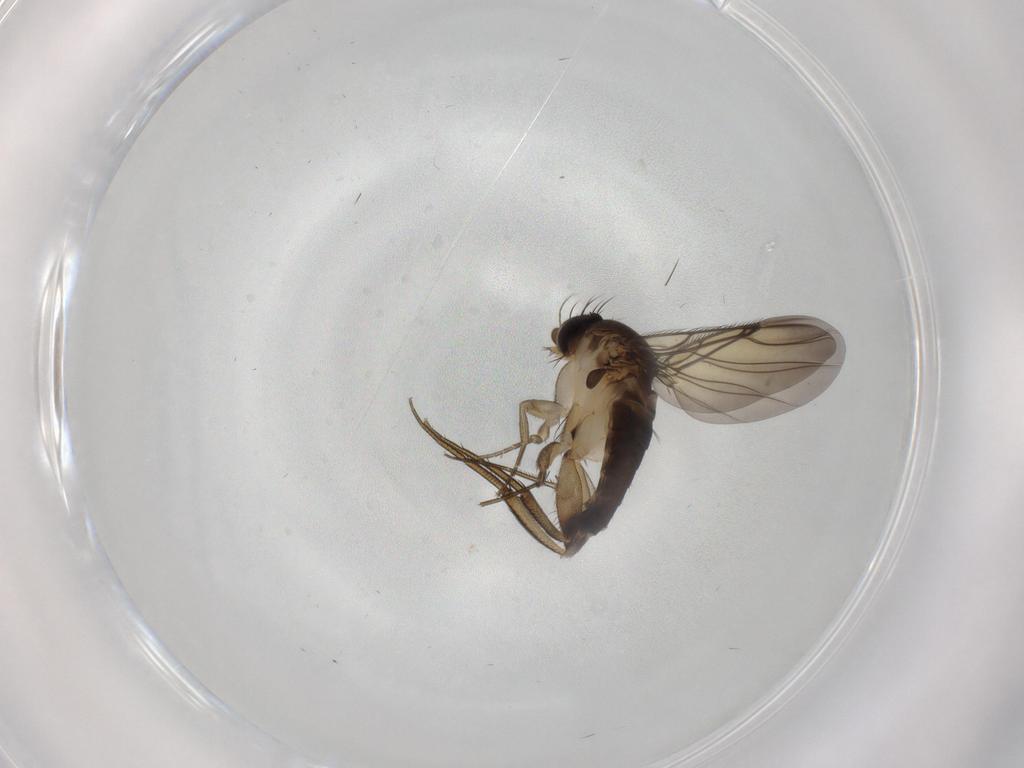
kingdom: Animalia
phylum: Arthropoda
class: Insecta
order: Diptera
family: Phoridae
